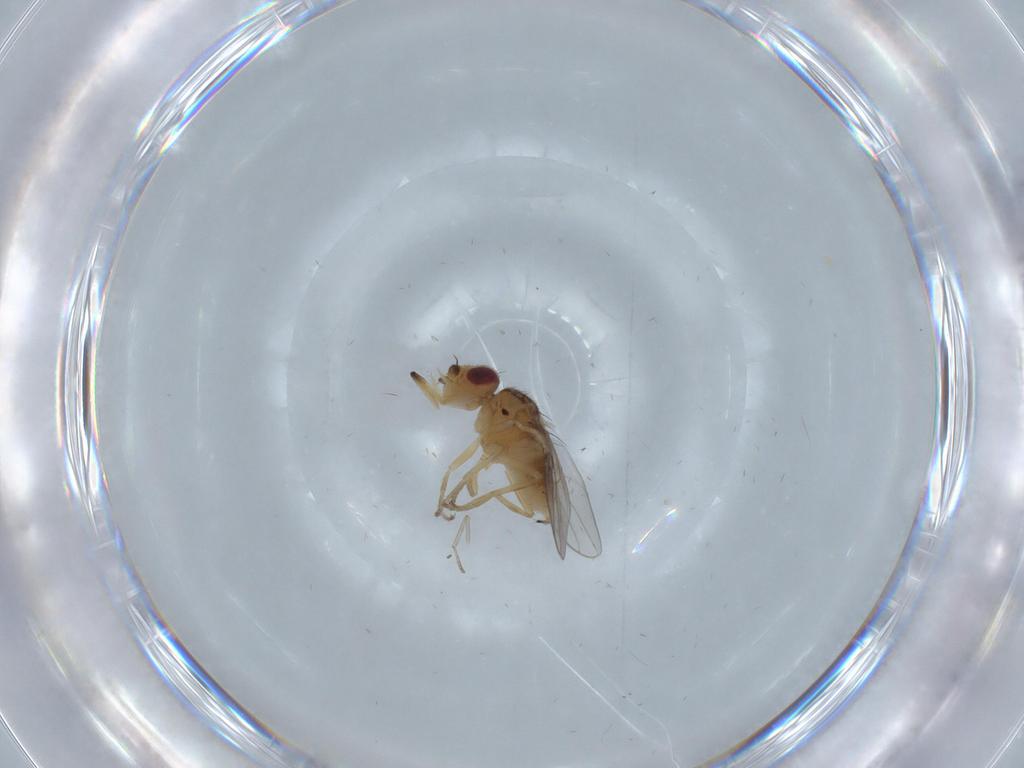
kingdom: Animalia
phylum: Arthropoda
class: Insecta
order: Diptera
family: Chloropidae
